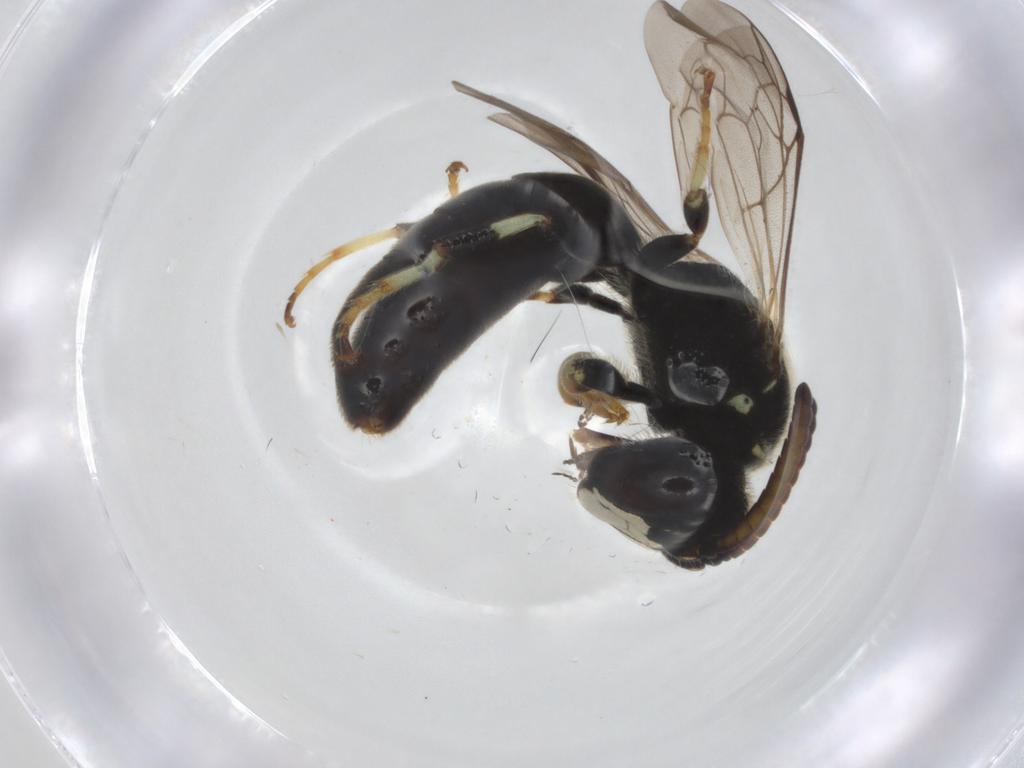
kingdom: Animalia
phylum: Arthropoda
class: Insecta
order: Hymenoptera
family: Colletidae
